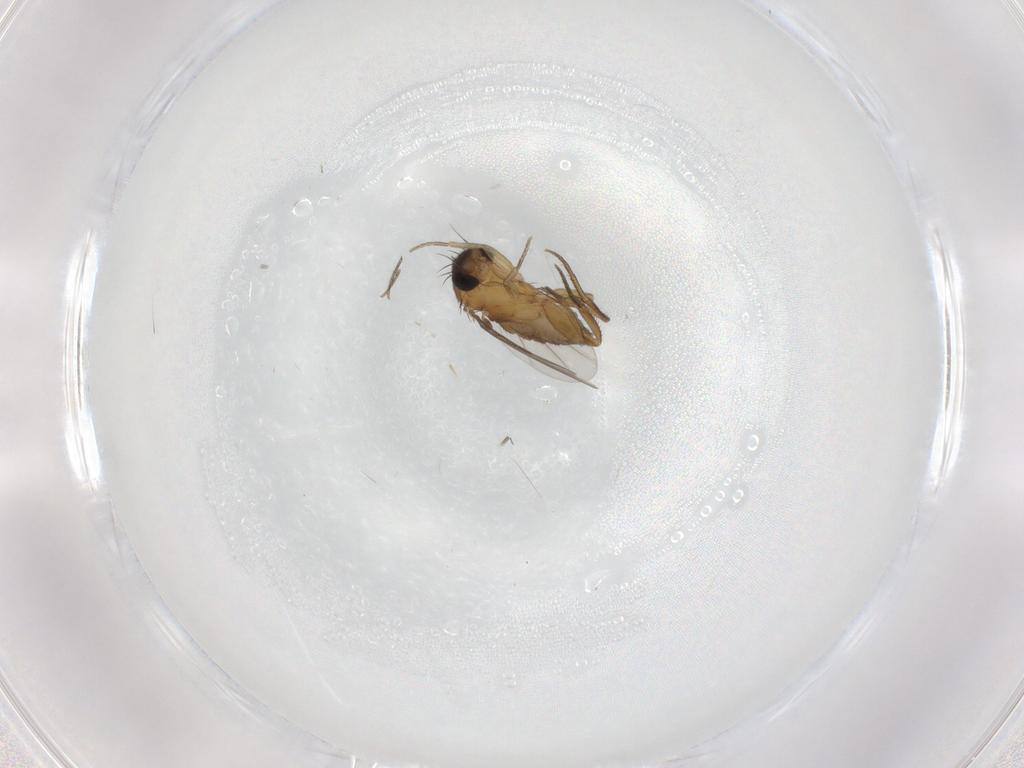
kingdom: Animalia
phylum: Arthropoda
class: Insecta
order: Diptera
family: Phoridae
